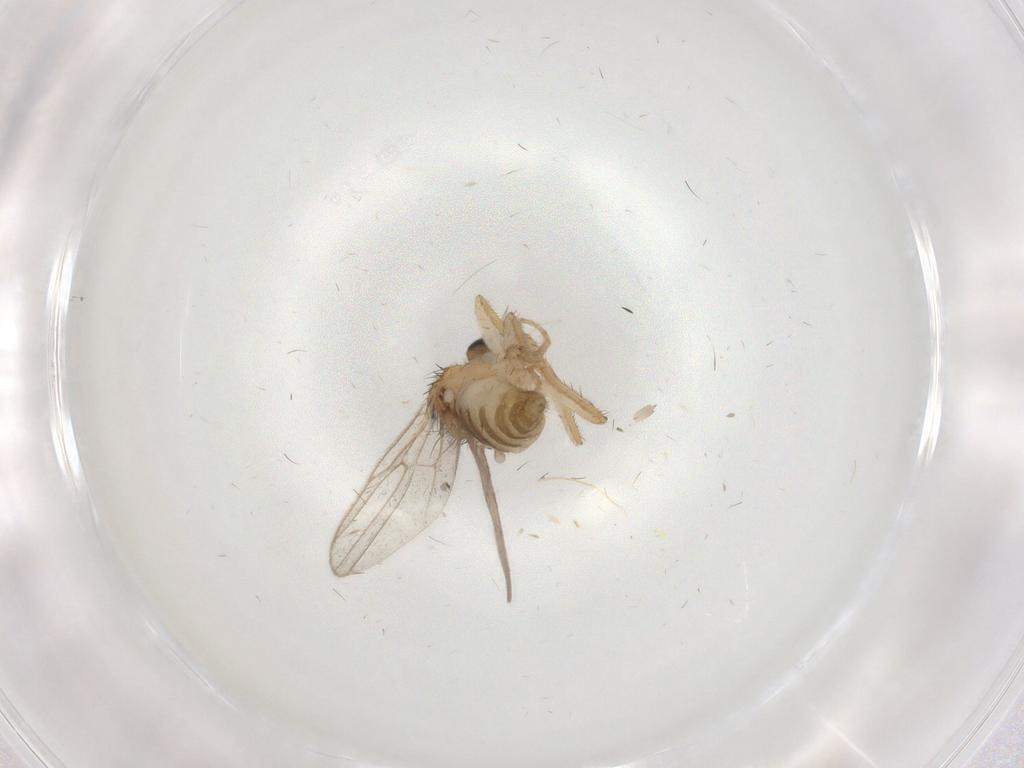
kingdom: Animalia
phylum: Arthropoda
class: Insecta
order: Diptera
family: Hybotidae
